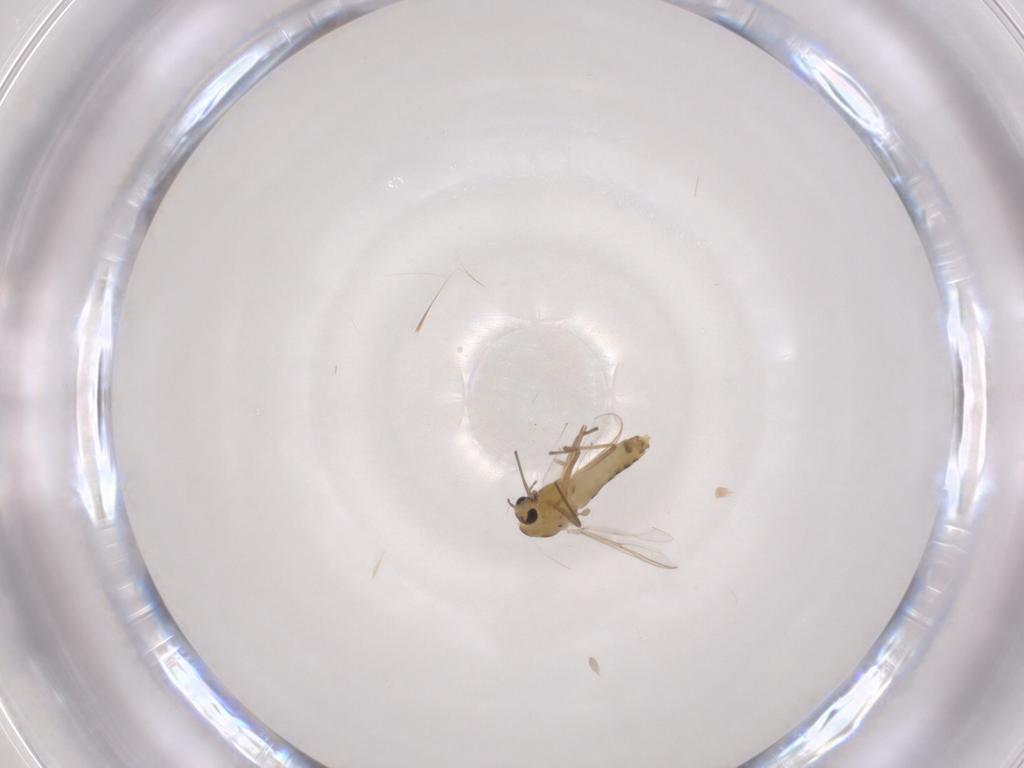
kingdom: Animalia
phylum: Arthropoda
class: Insecta
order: Diptera
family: Chironomidae
